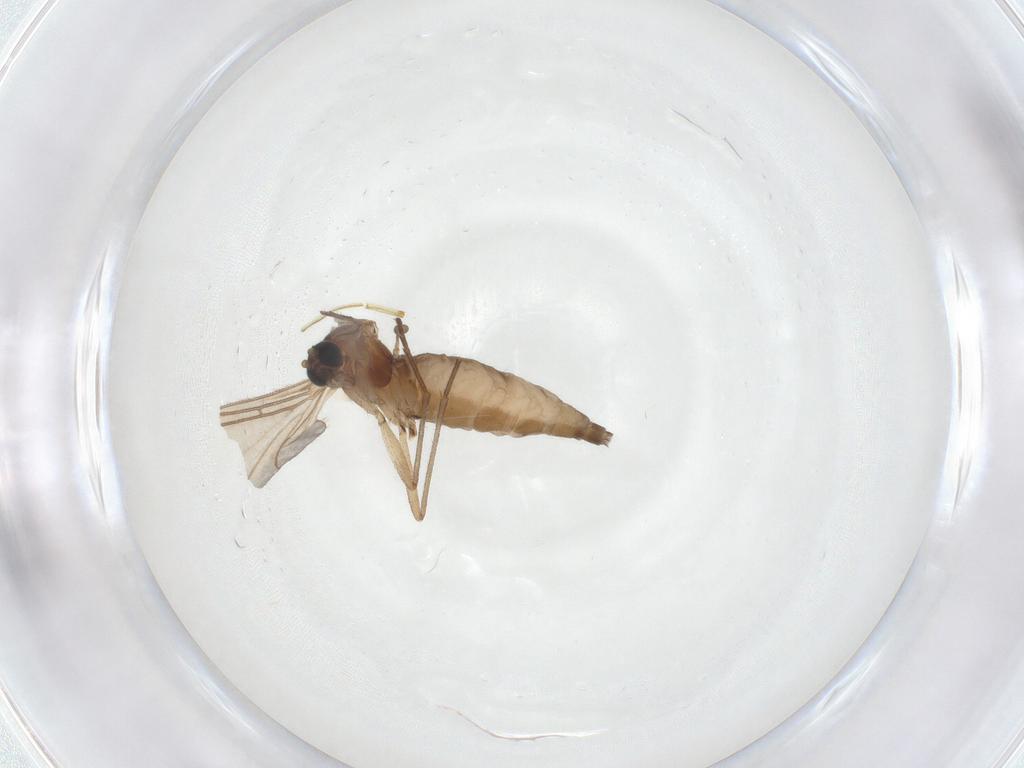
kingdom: Animalia
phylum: Arthropoda
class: Insecta
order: Diptera
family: Sciaridae
